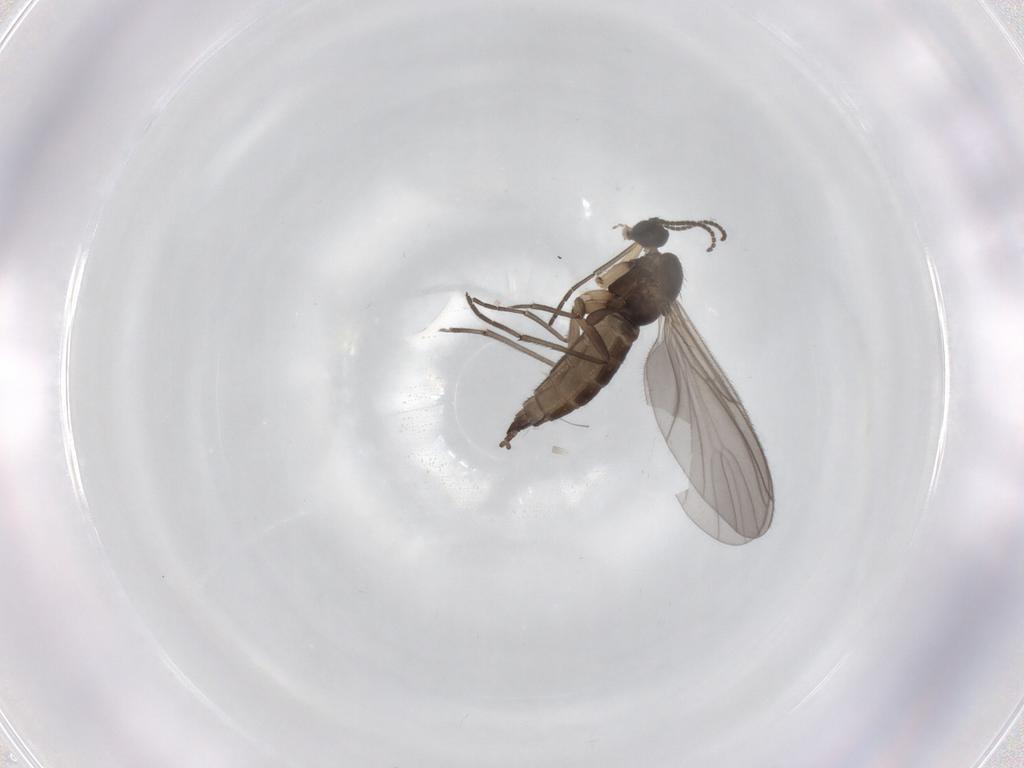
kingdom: Animalia
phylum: Arthropoda
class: Insecta
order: Diptera
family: Sciaridae
